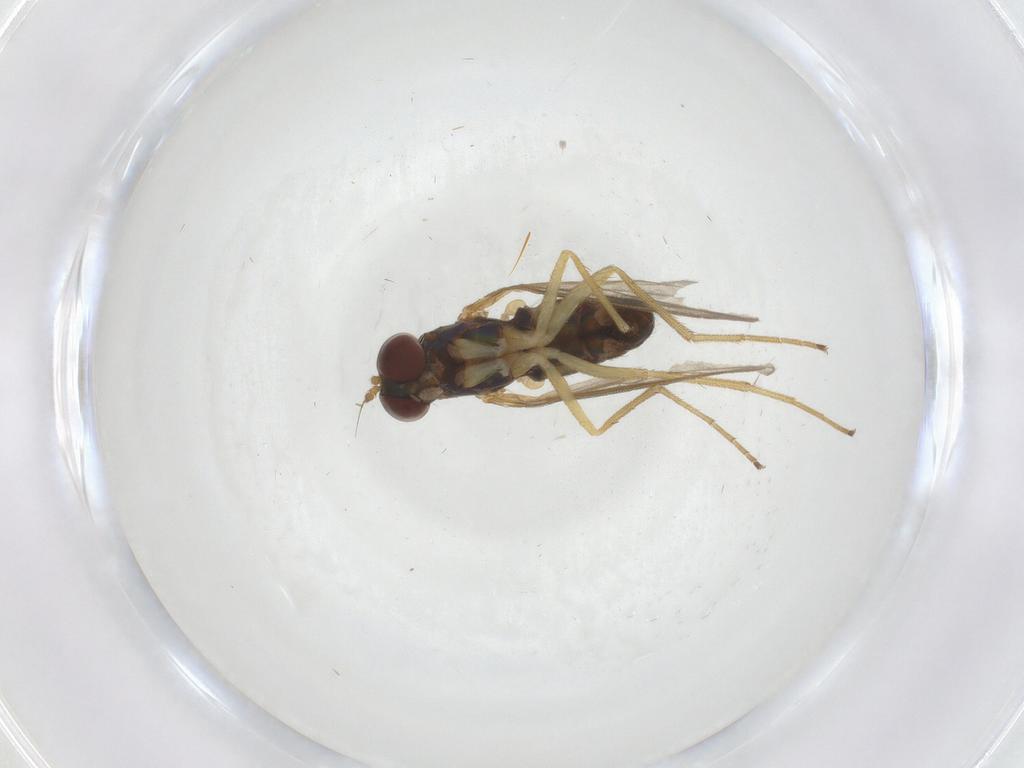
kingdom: Animalia
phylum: Arthropoda
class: Insecta
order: Diptera
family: Dolichopodidae
